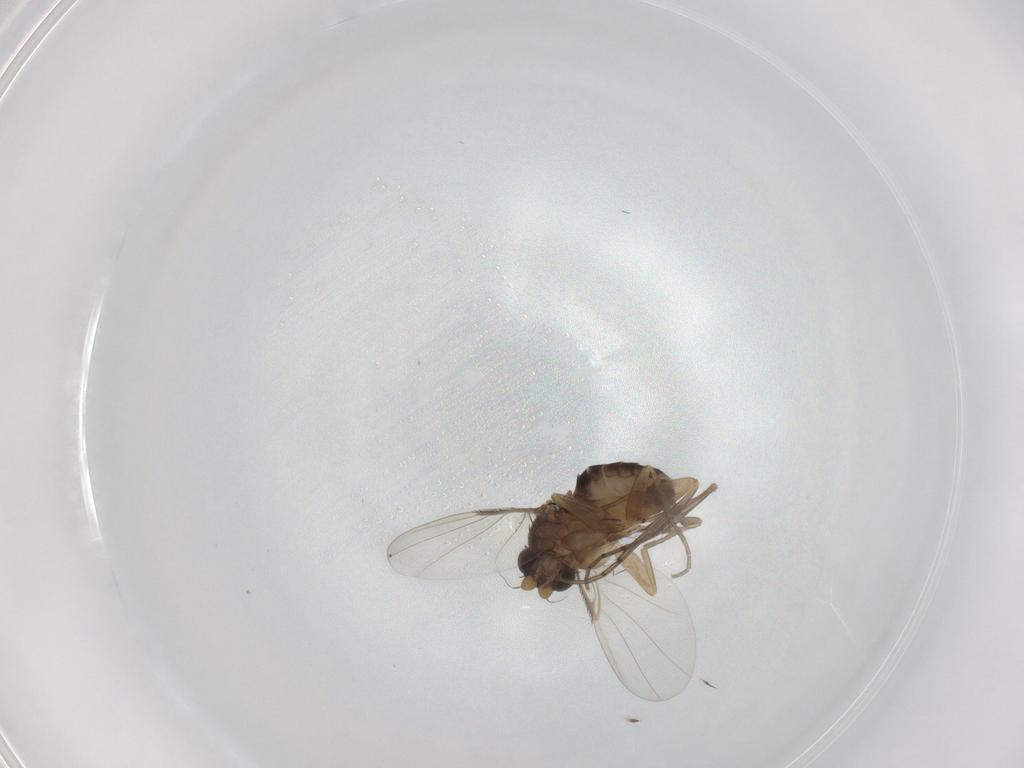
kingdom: Animalia
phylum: Arthropoda
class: Insecta
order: Diptera
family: Phoridae
